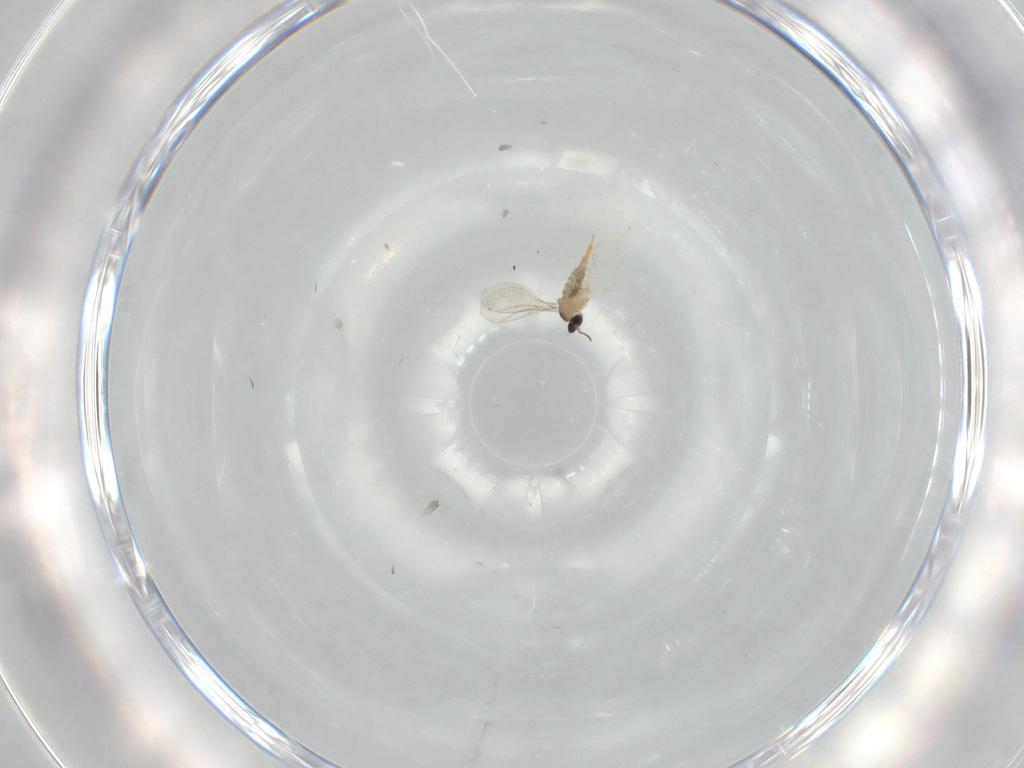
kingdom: Animalia
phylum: Arthropoda
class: Insecta
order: Diptera
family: Cecidomyiidae
